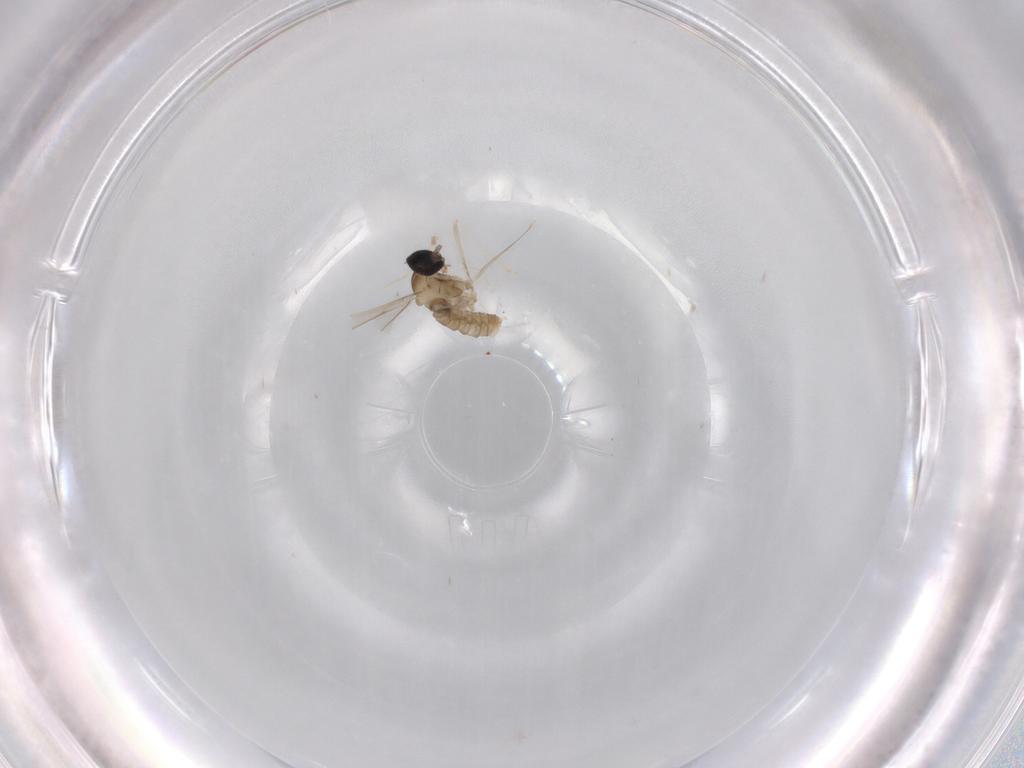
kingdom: Animalia
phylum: Arthropoda
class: Insecta
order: Diptera
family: Cecidomyiidae
